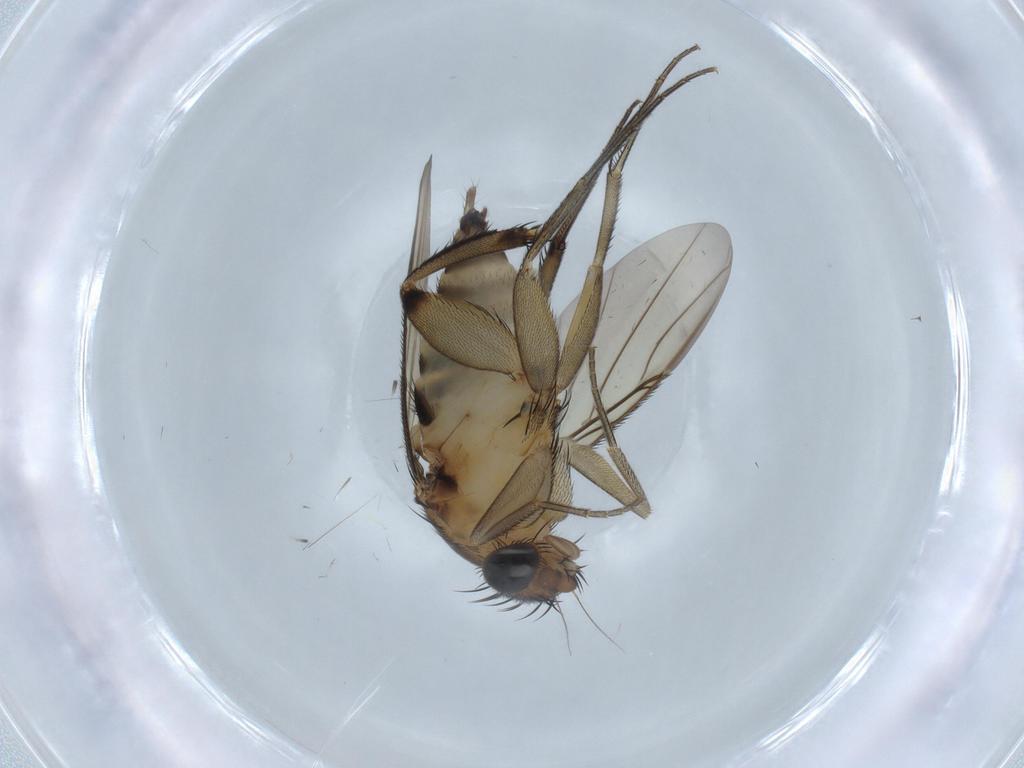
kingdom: Animalia
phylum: Arthropoda
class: Insecta
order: Diptera
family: Phoridae
